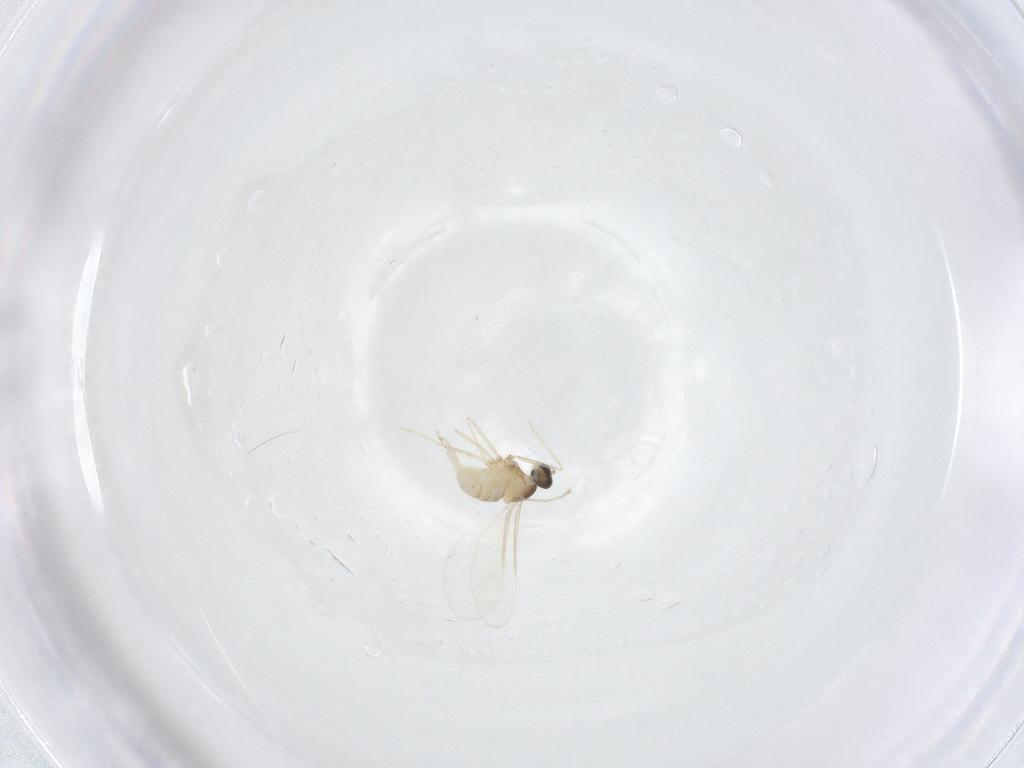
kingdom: Animalia
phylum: Arthropoda
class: Insecta
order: Diptera
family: Cecidomyiidae
